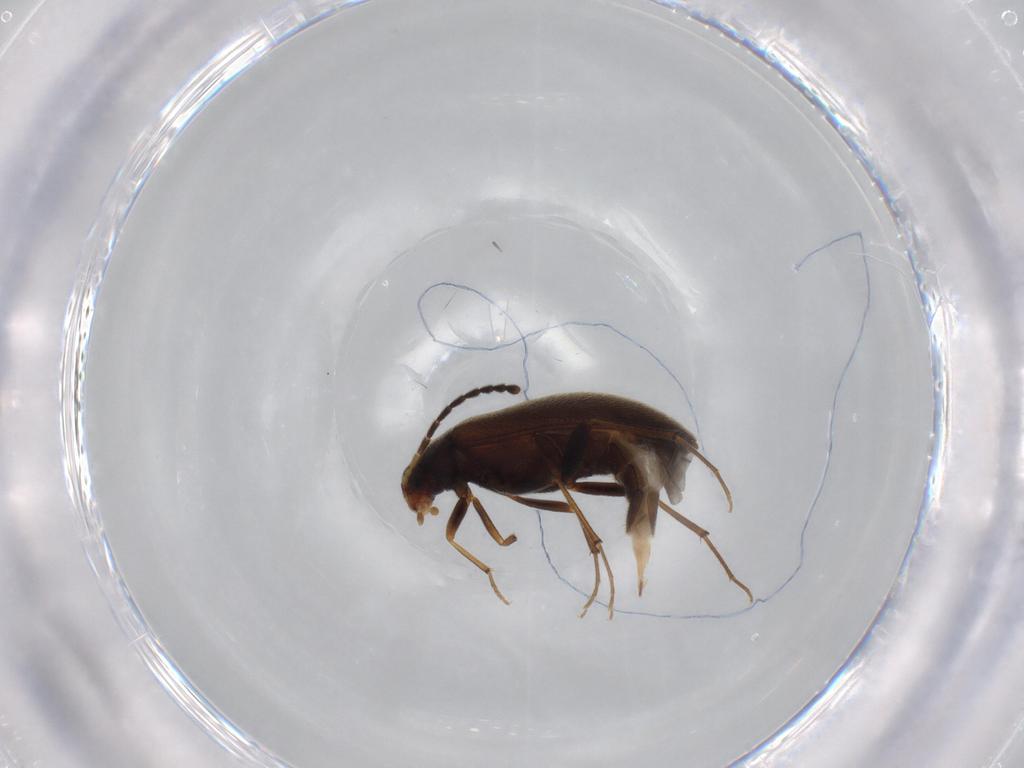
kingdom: Animalia
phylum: Arthropoda
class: Insecta
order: Coleoptera
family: Melandryidae
